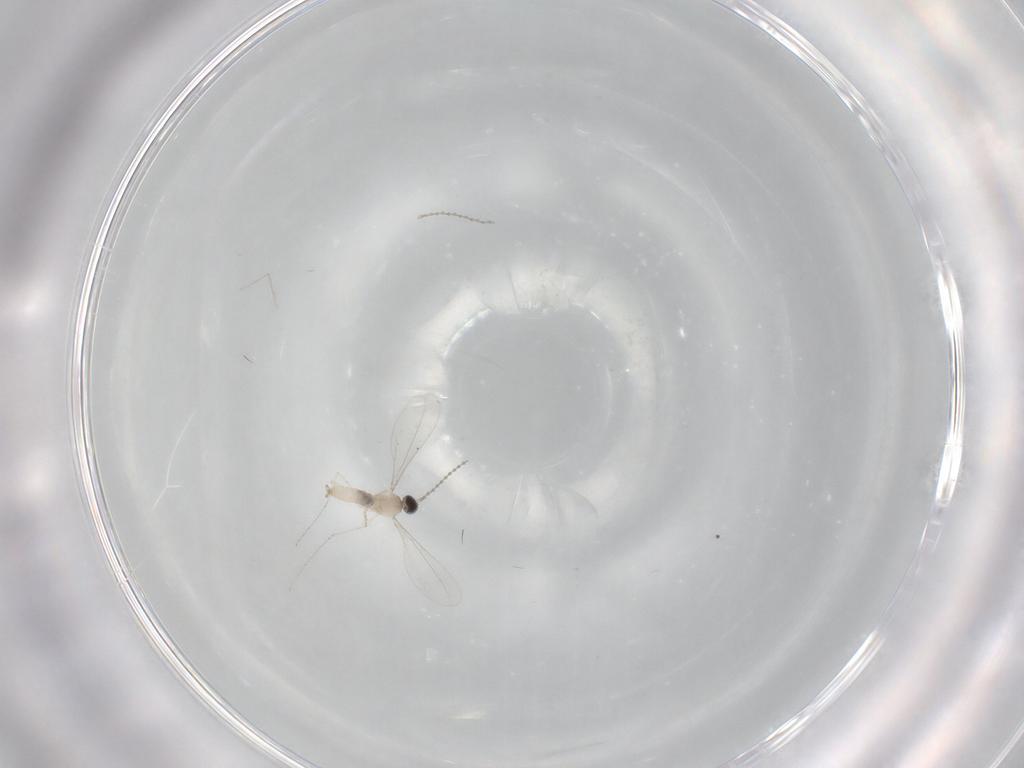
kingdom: Animalia
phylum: Arthropoda
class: Insecta
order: Diptera
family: Cecidomyiidae
